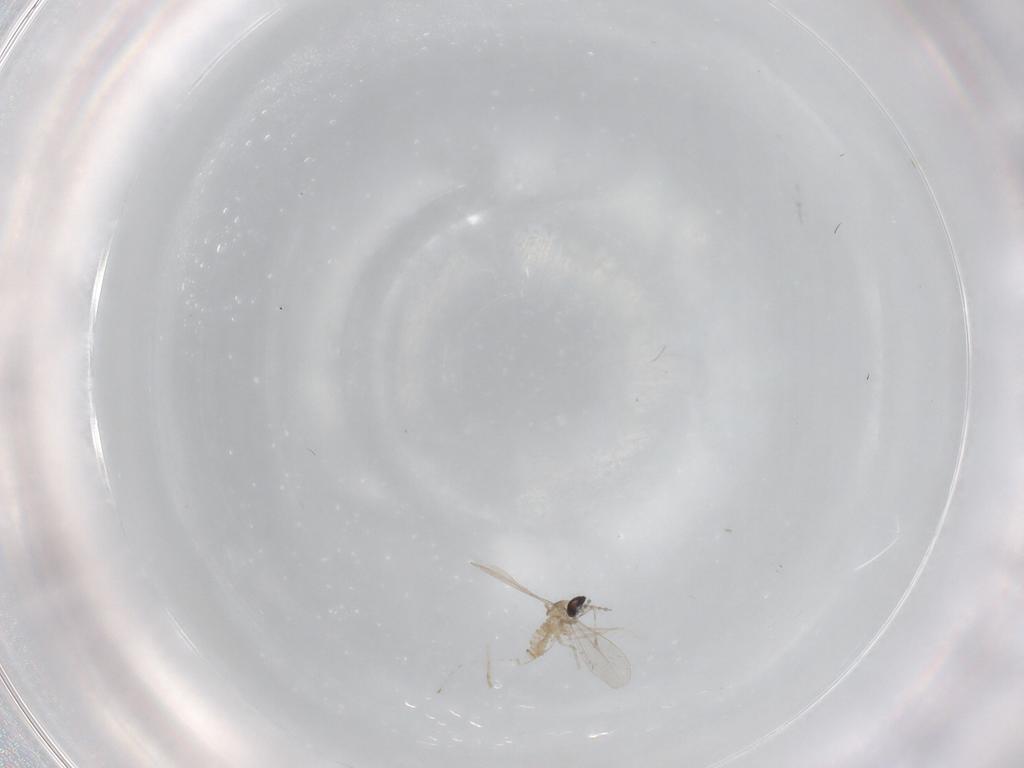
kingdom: Animalia
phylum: Arthropoda
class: Insecta
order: Diptera
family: Cecidomyiidae
